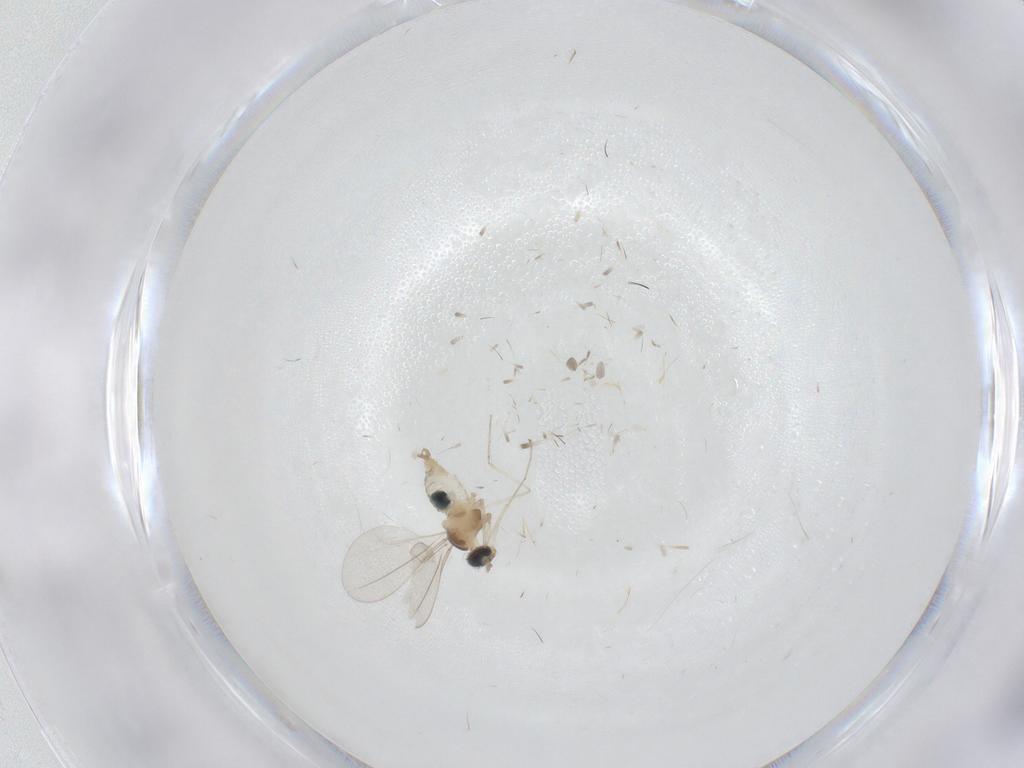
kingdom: Animalia
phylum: Arthropoda
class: Insecta
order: Diptera
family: Cecidomyiidae
